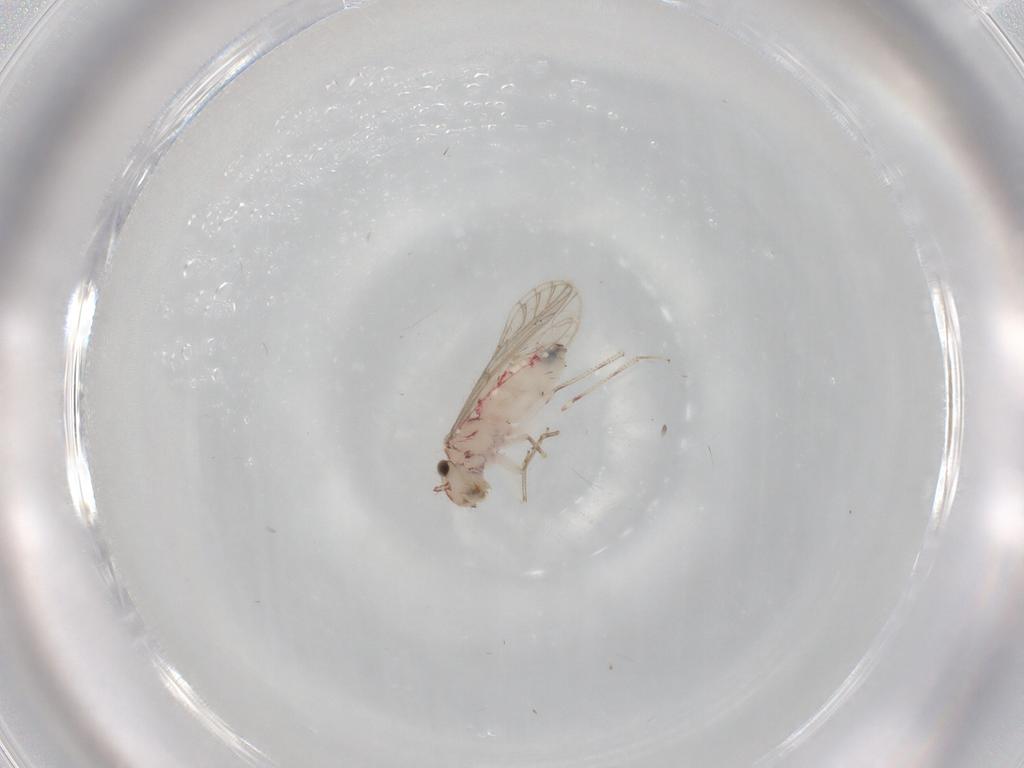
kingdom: Animalia
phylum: Arthropoda
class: Insecta
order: Psocodea
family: Caeciliusidae
